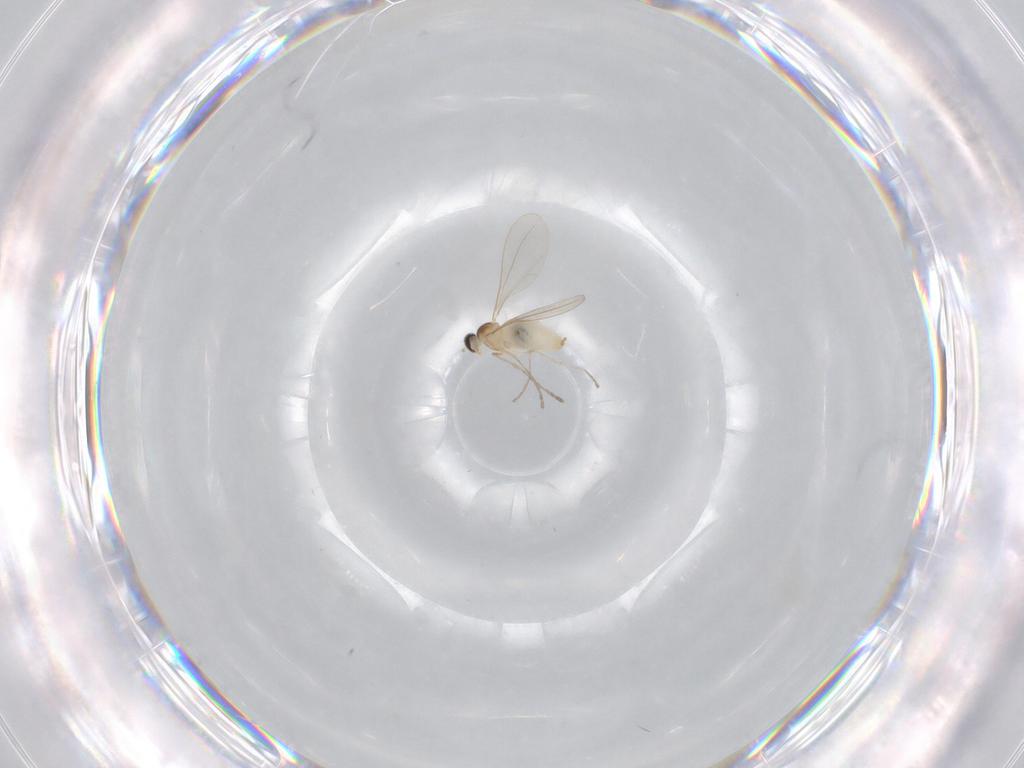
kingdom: Animalia
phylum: Arthropoda
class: Insecta
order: Diptera
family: Cecidomyiidae
